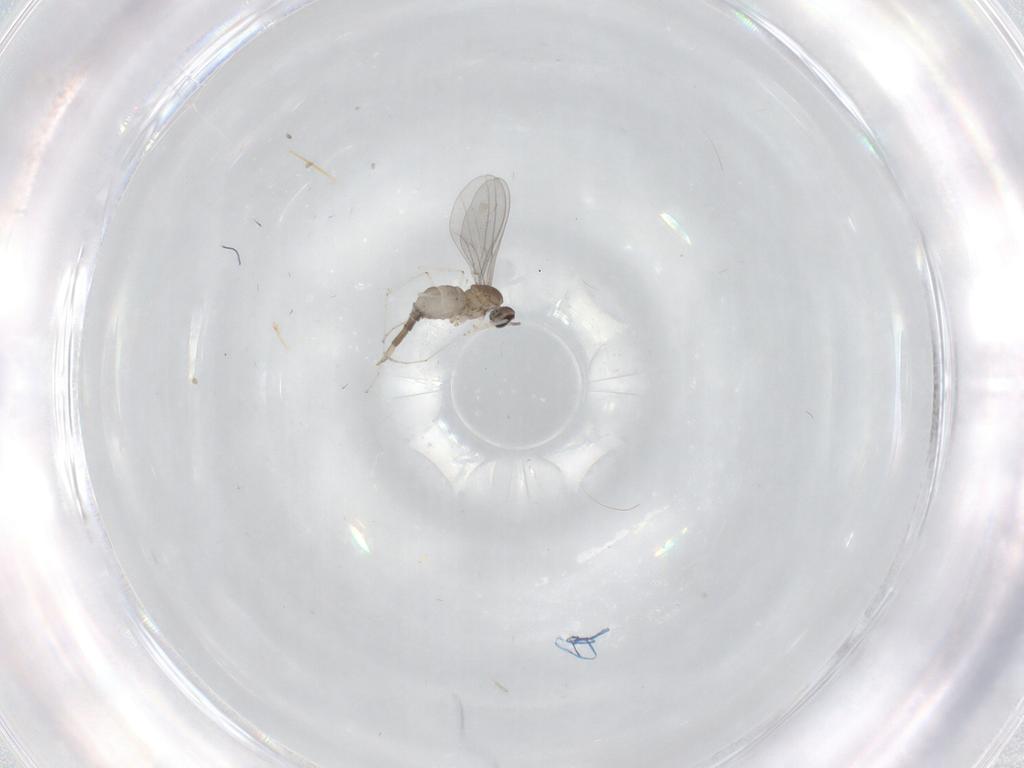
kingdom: Animalia
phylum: Arthropoda
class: Insecta
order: Diptera
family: Cecidomyiidae
